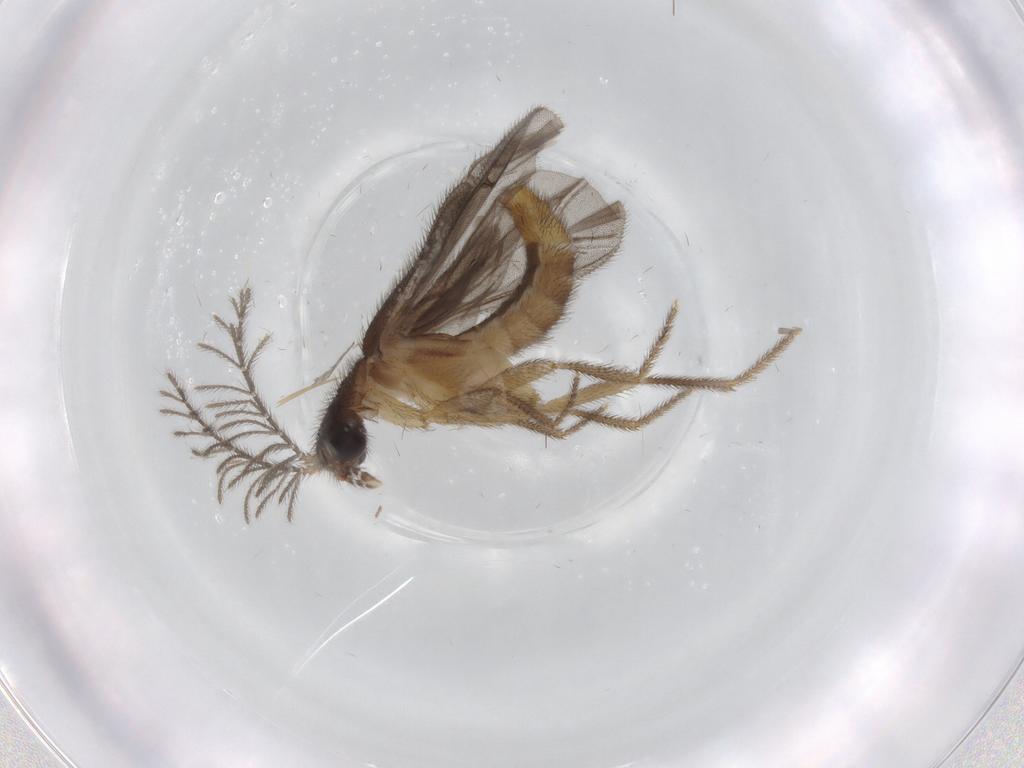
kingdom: Animalia
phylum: Arthropoda
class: Insecta
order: Coleoptera
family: Phengodidae
